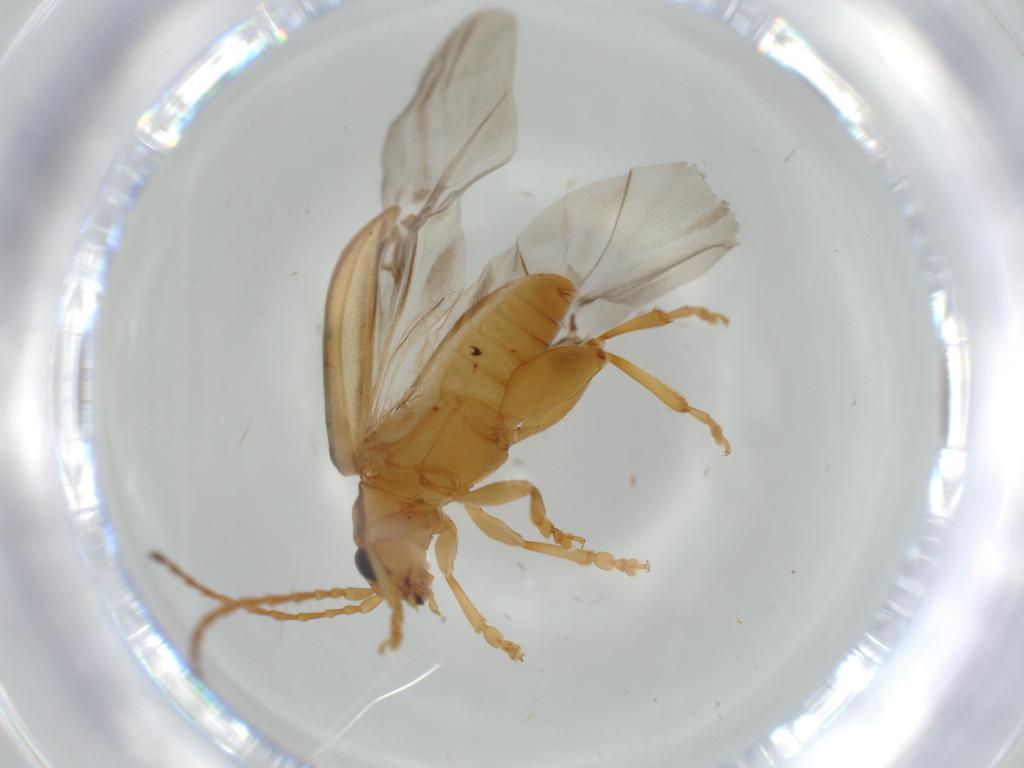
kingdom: Animalia
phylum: Arthropoda
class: Insecta
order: Coleoptera
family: Chrysomelidae
